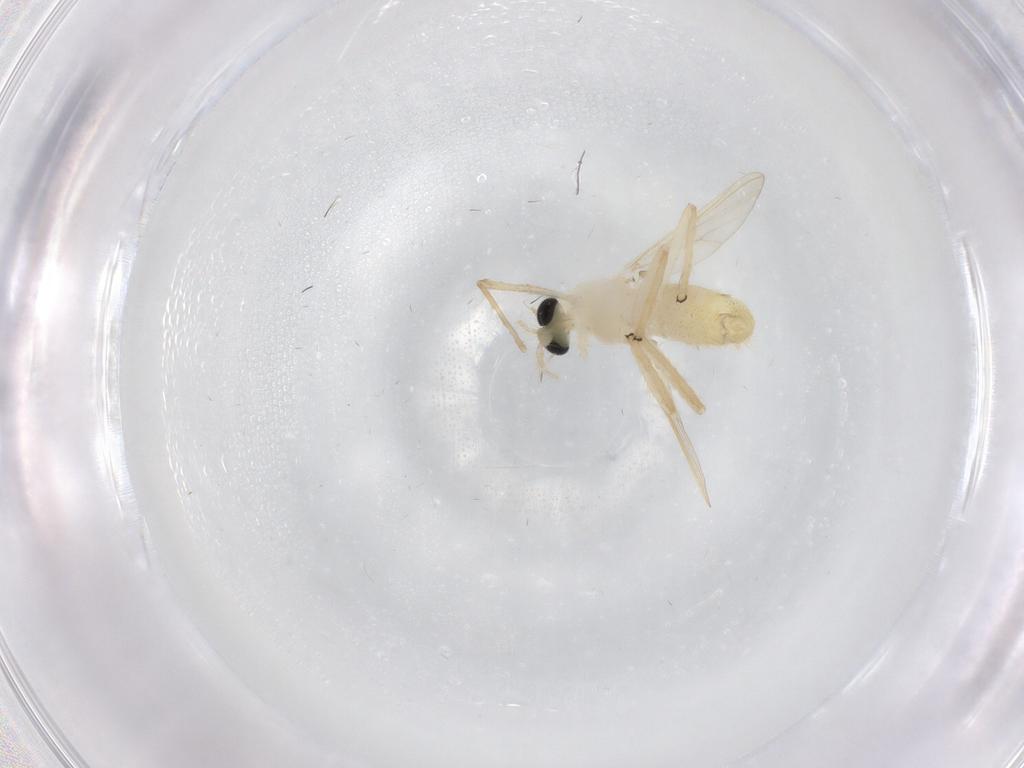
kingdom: Animalia
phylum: Arthropoda
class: Insecta
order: Diptera
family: Chironomidae
